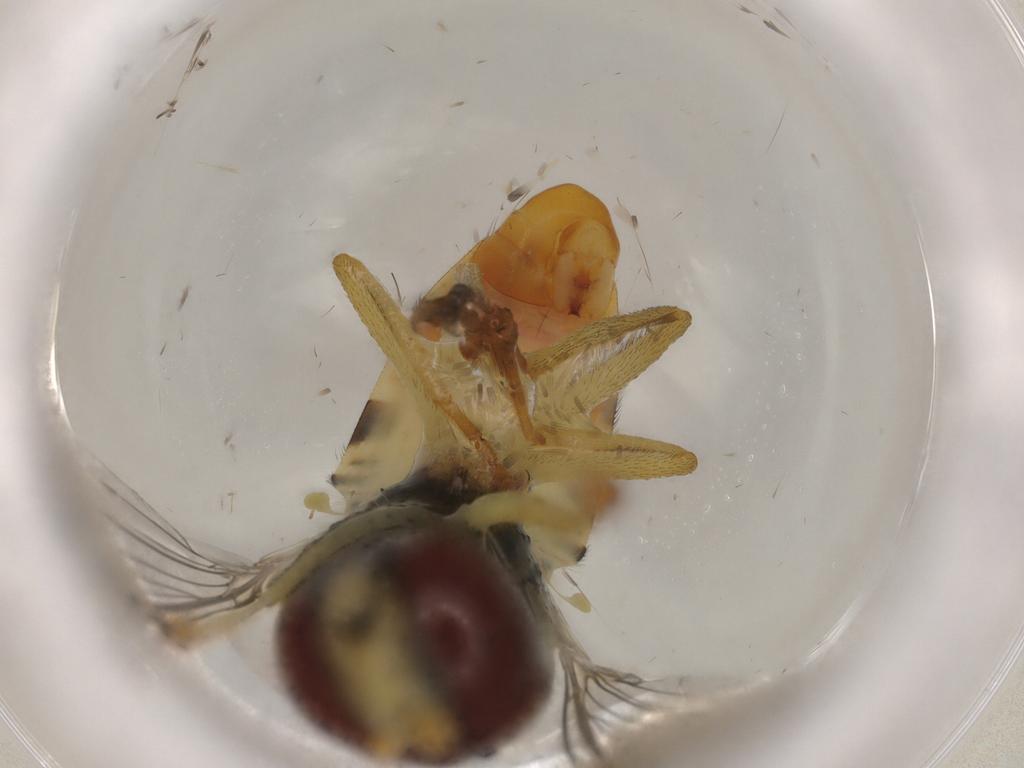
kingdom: Animalia
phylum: Arthropoda
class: Insecta
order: Diptera
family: Syrphidae
